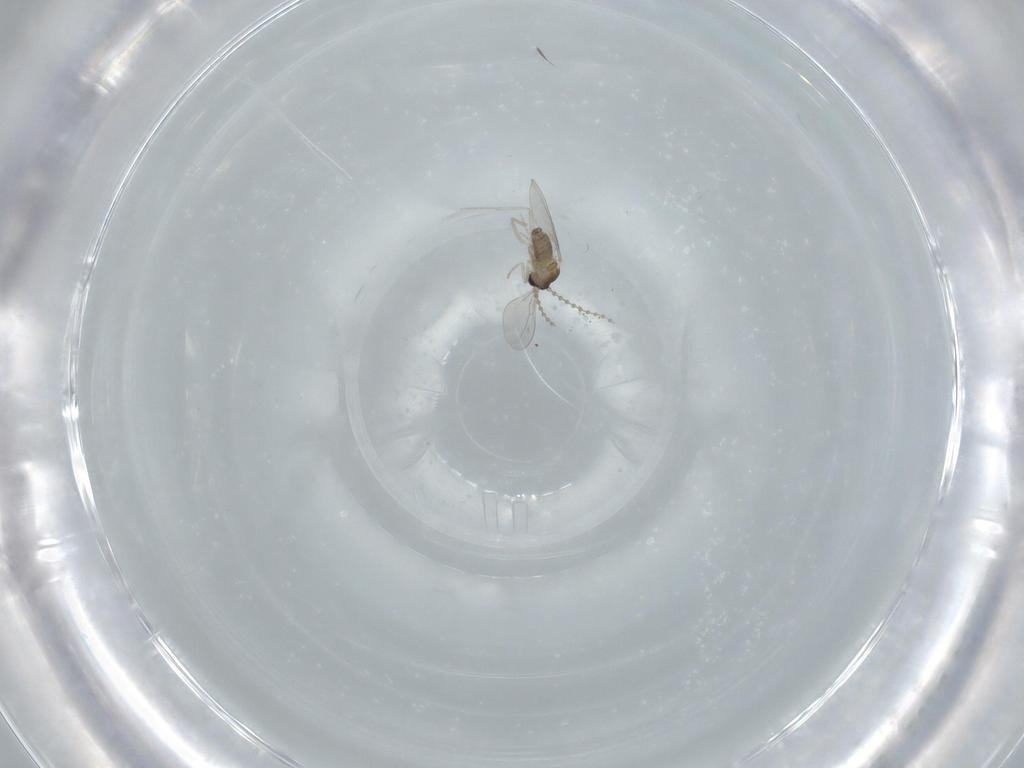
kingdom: Animalia
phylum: Arthropoda
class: Insecta
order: Diptera
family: Cecidomyiidae
